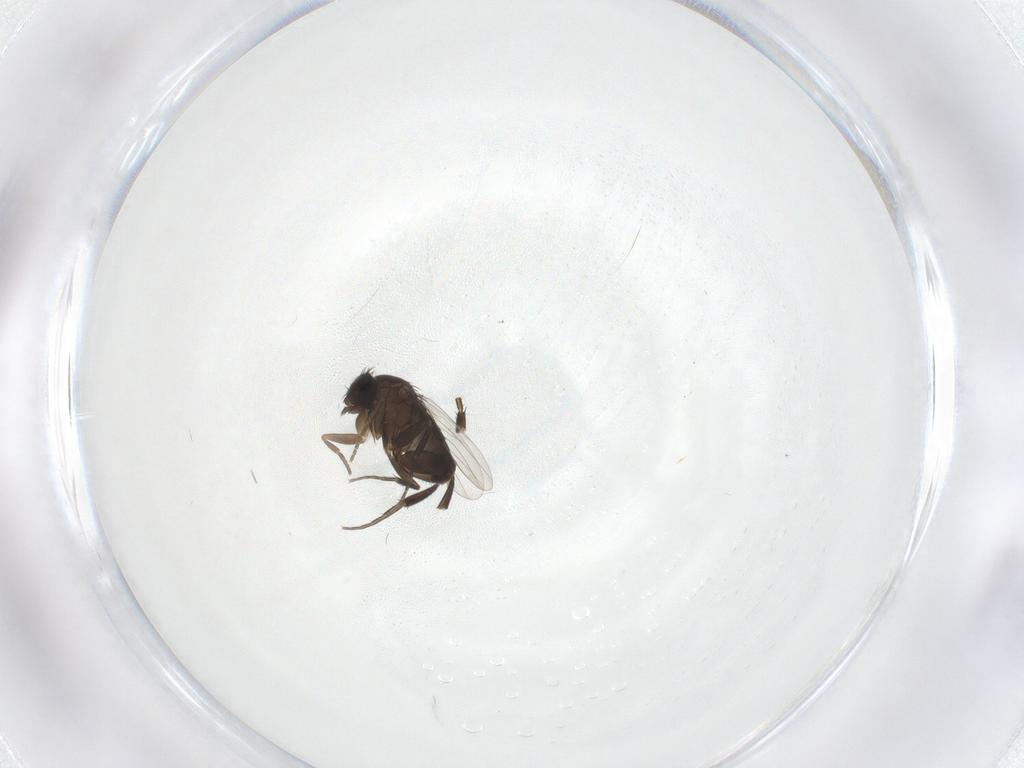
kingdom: Animalia
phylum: Arthropoda
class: Insecta
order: Diptera
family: Phoridae
